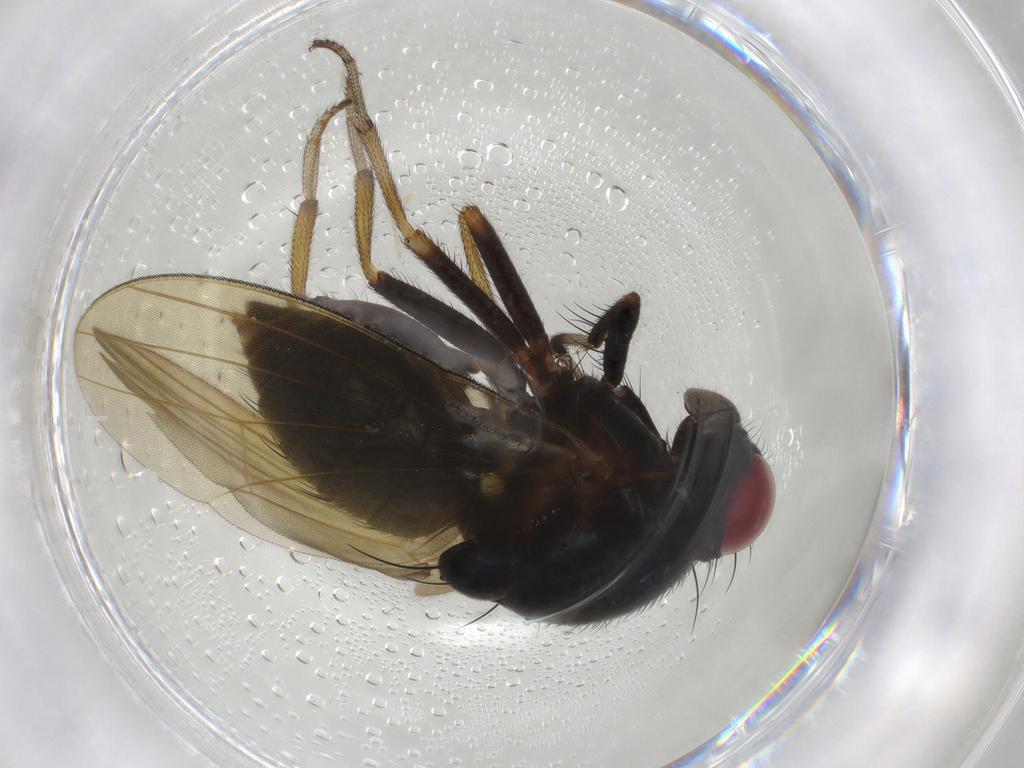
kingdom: Animalia
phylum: Arthropoda
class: Insecta
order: Diptera
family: Lauxaniidae
